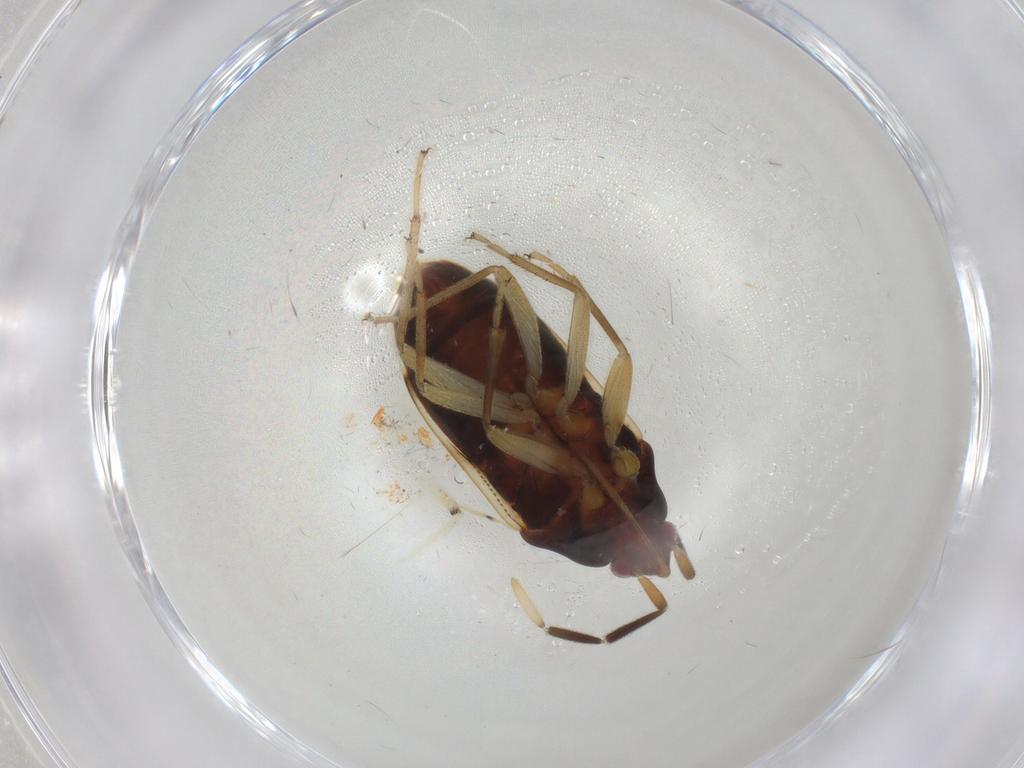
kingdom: Animalia
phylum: Arthropoda
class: Insecta
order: Hemiptera
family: Rhyparochromidae
